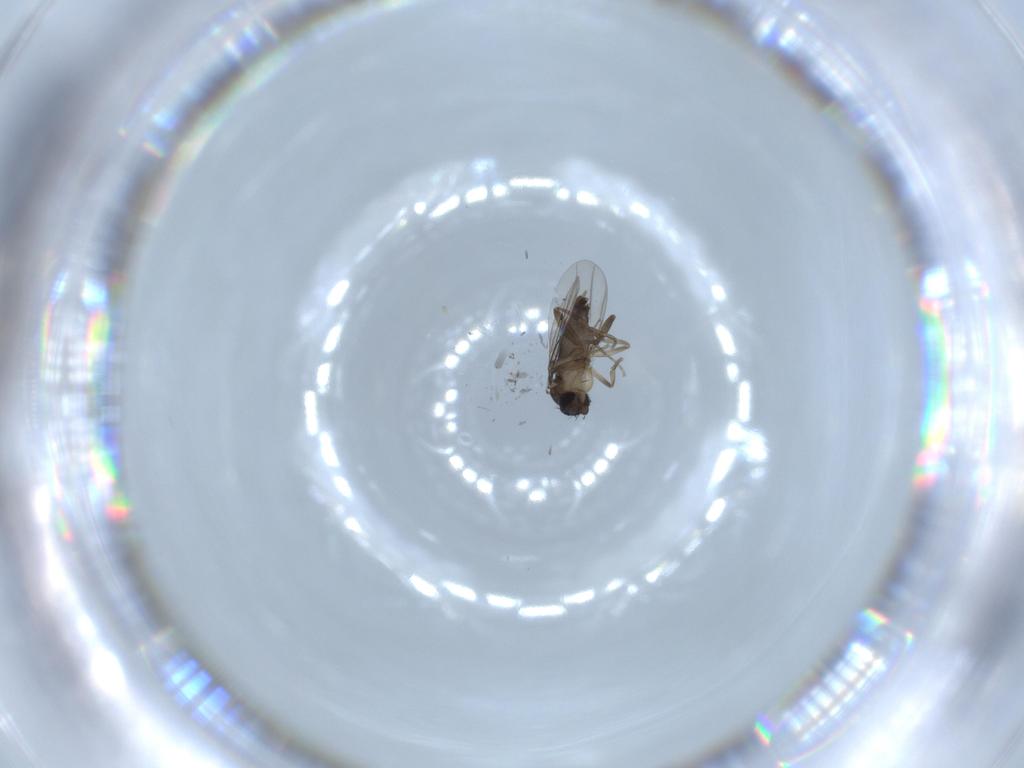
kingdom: Animalia
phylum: Arthropoda
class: Insecta
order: Diptera
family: Phoridae
